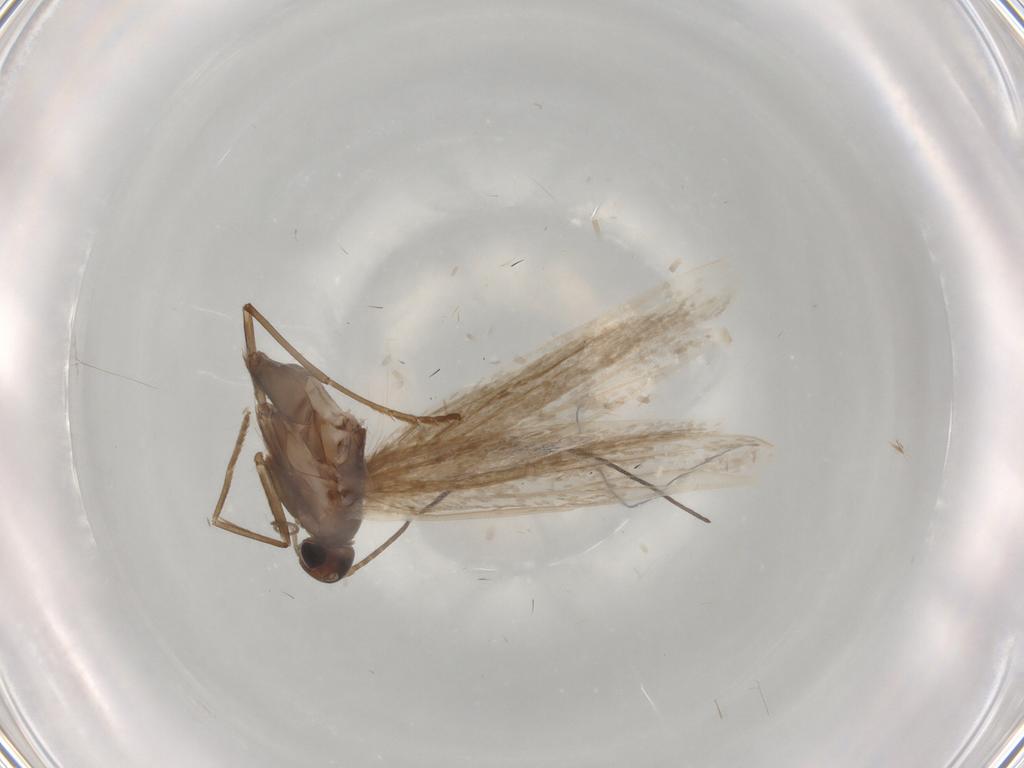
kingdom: Animalia
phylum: Arthropoda
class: Insecta
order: Lepidoptera
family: Coleophoridae
